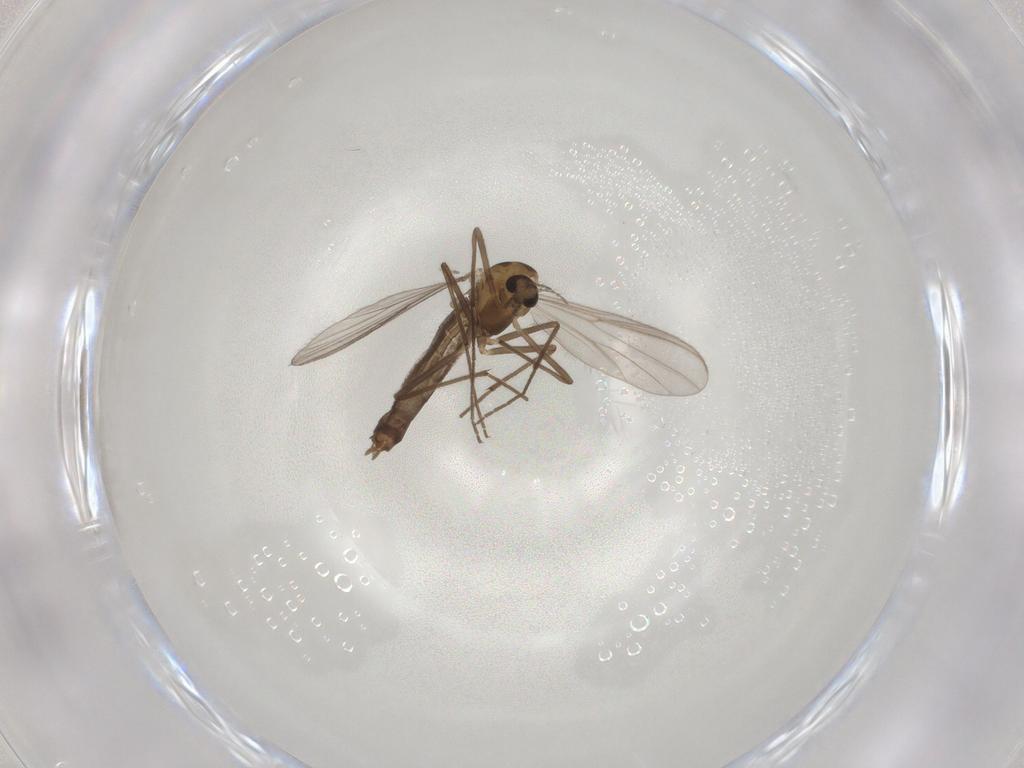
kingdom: Animalia
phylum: Arthropoda
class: Insecta
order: Diptera
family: Chironomidae
